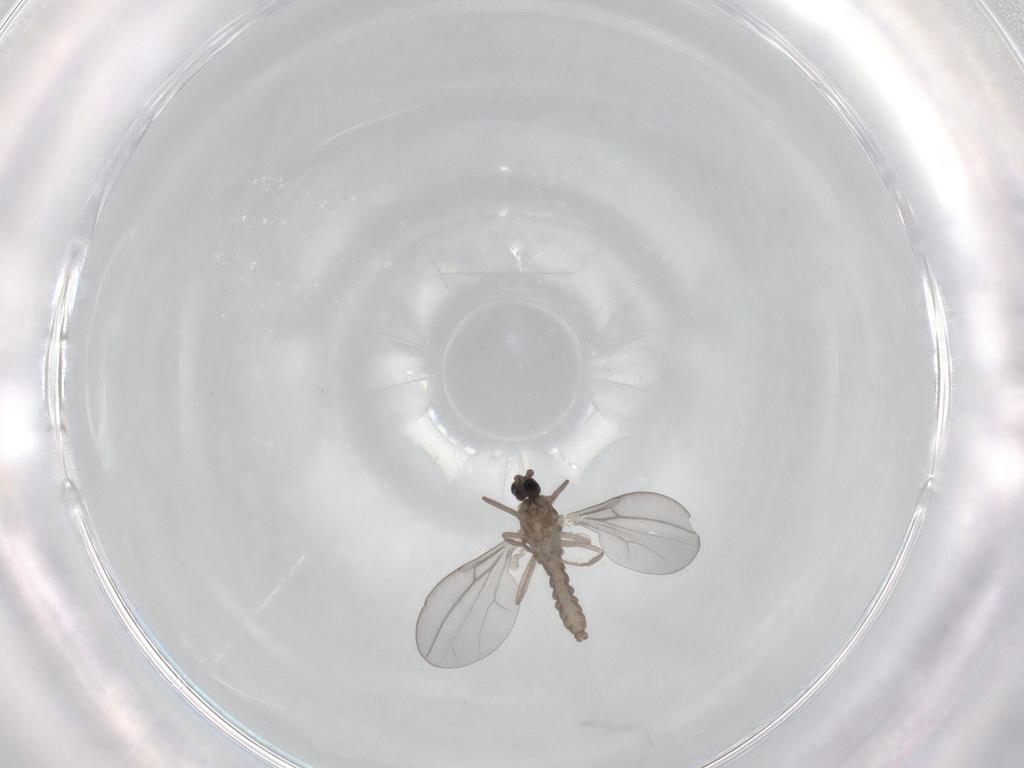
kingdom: Animalia
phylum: Arthropoda
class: Insecta
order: Diptera
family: Cecidomyiidae
